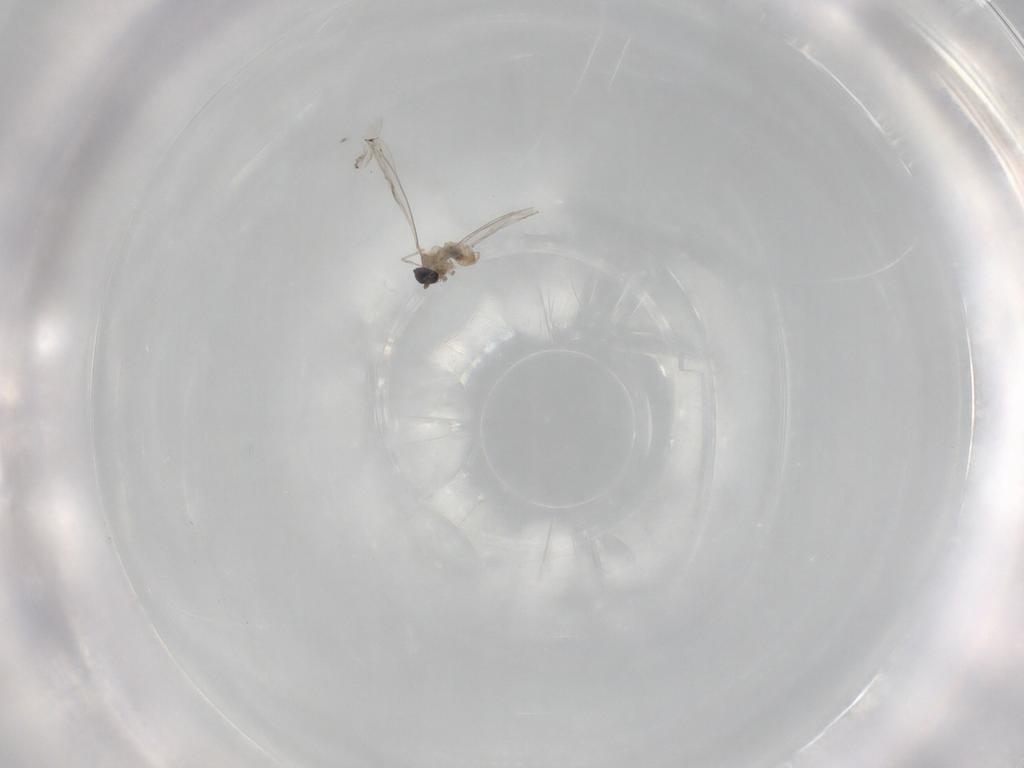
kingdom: Animalia
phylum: Arthropoda
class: Insecta
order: Diptera
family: Cecidomyiidae
